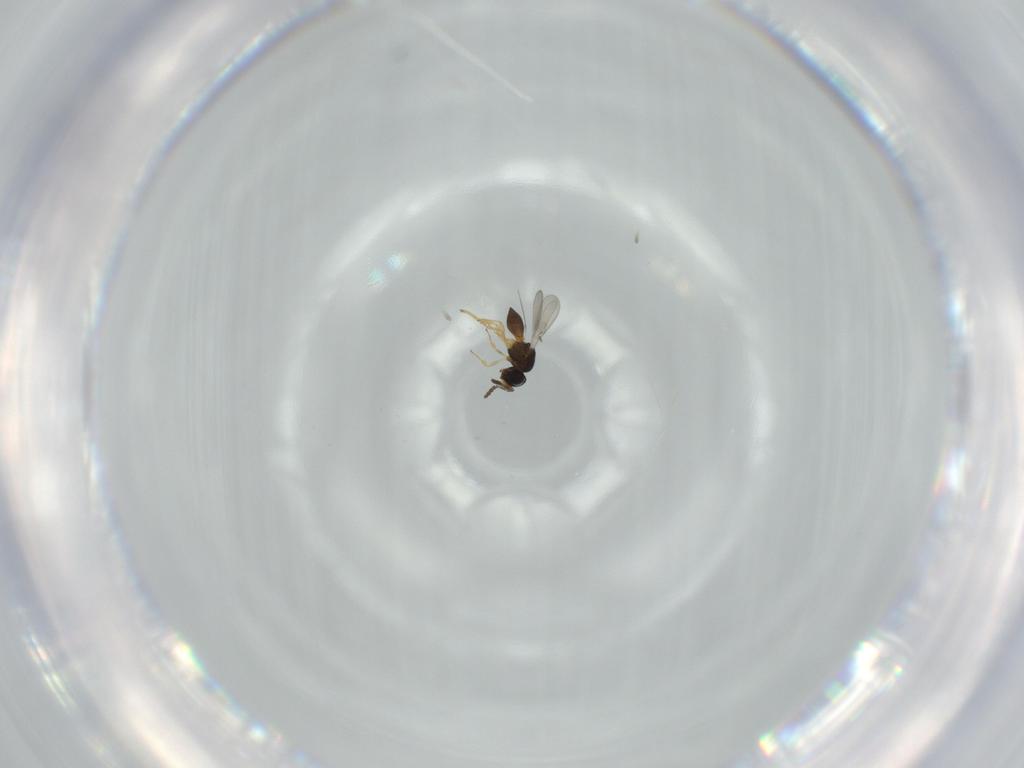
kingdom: Animalia
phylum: Arthropoda
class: Insecta
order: Hymenoptera
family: Scelionidae
